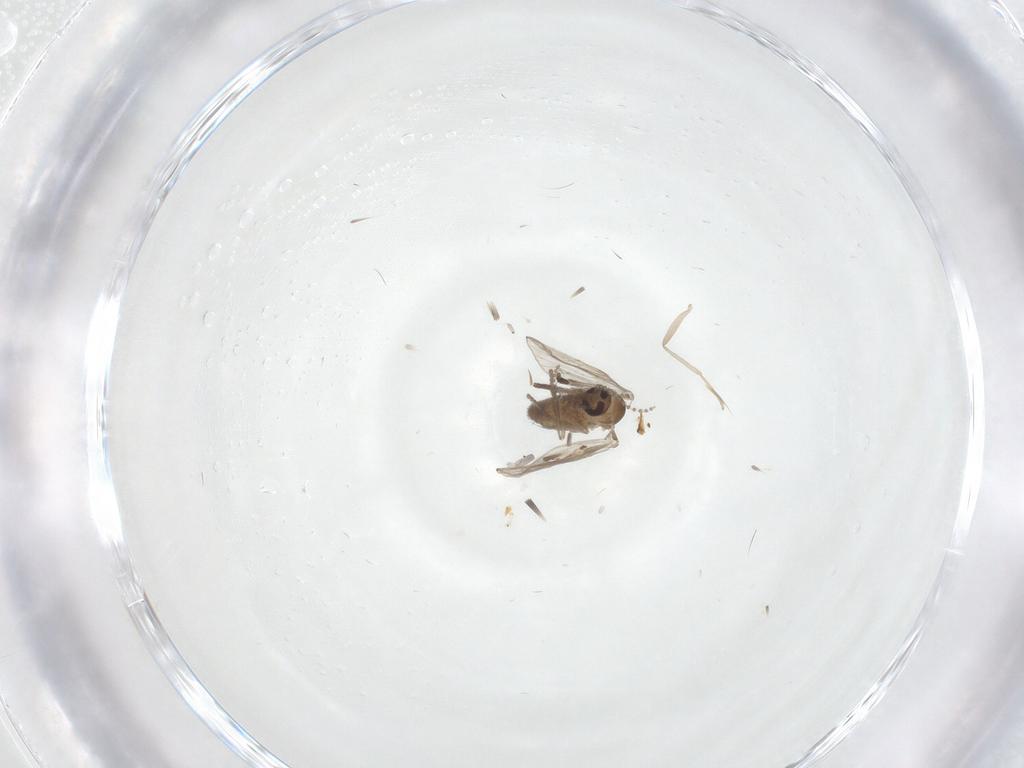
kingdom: Animalia
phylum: Arthropoda
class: Insecta
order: Diptera
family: Psychodidae
